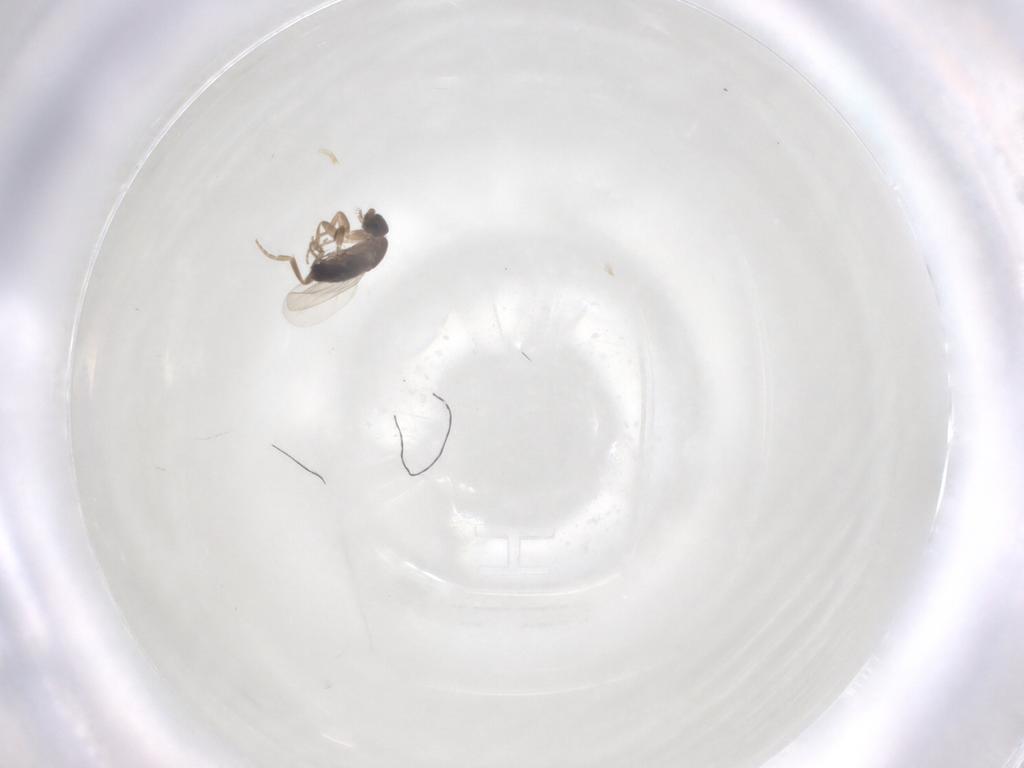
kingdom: Animalia
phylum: Arthropoda
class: Insecta
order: Diptera
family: Phoridae
